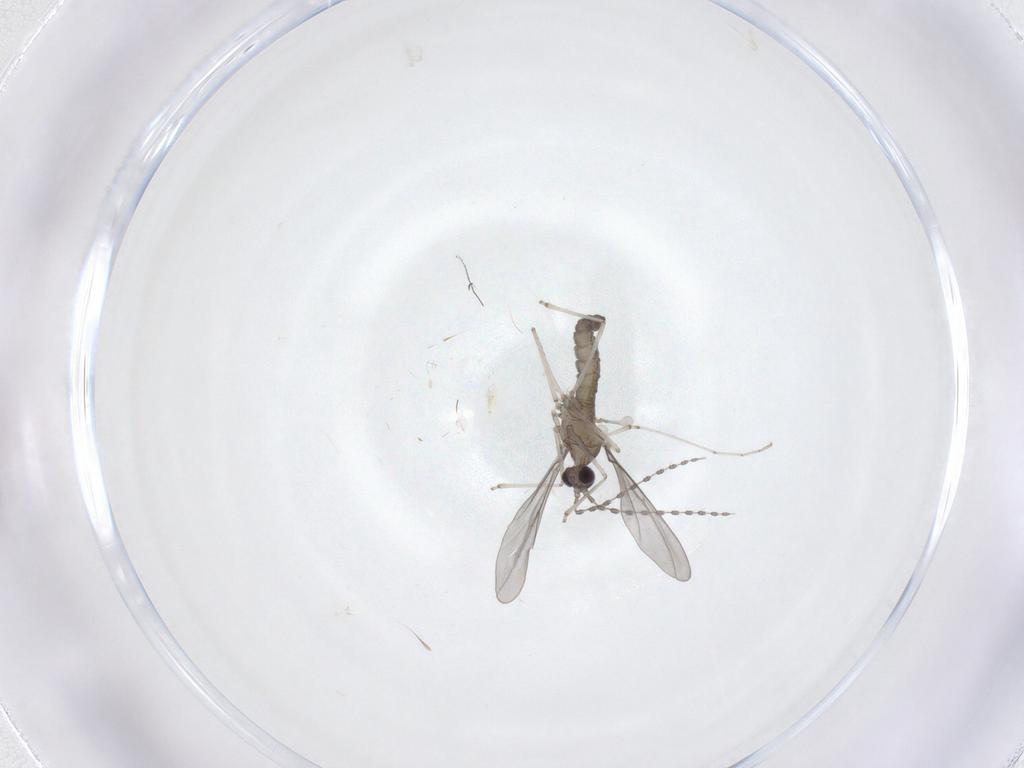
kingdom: Animalia
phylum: Arthropoda
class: Insecta
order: Diptera
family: Cecidomyiidae
